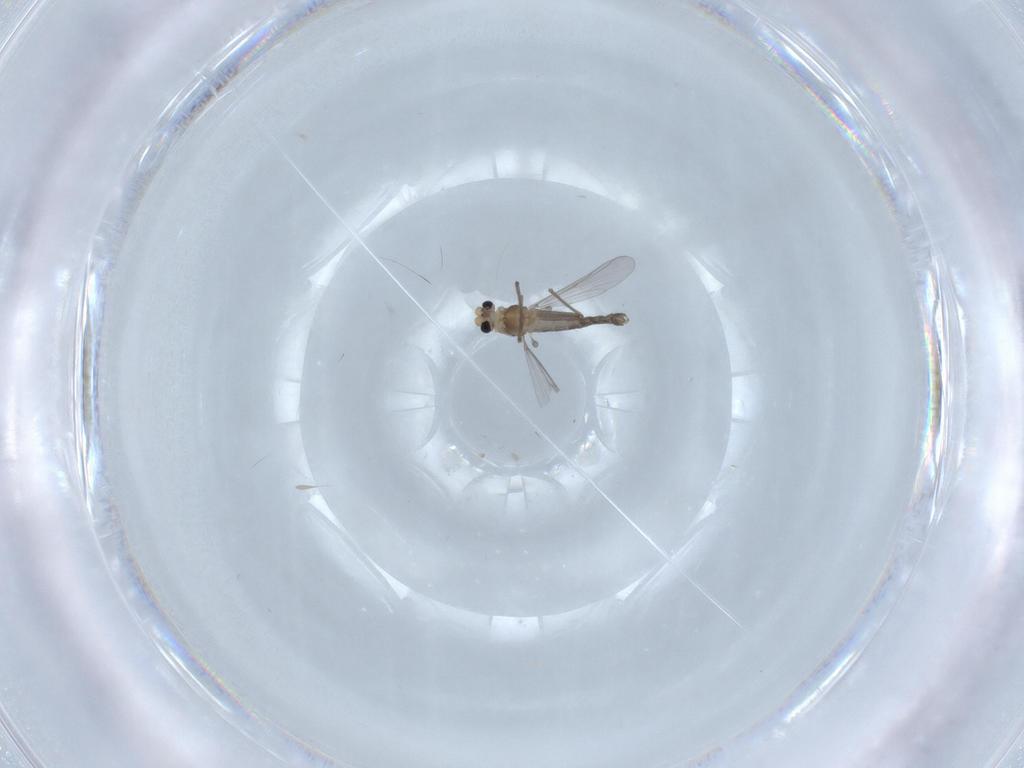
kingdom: Animalia
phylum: Arthropoda
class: Insecta
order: Diptera
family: Chironomidae
